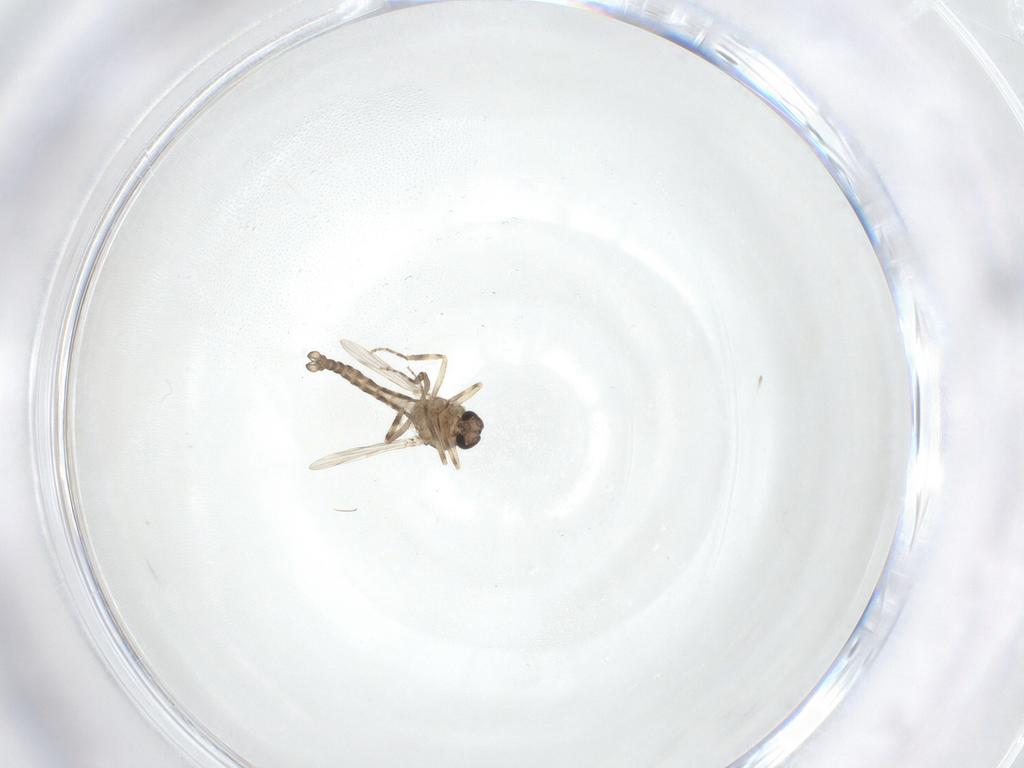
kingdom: Animalia
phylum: Arthropoda
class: Insecta
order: Diptera
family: Ceratopogonidae
